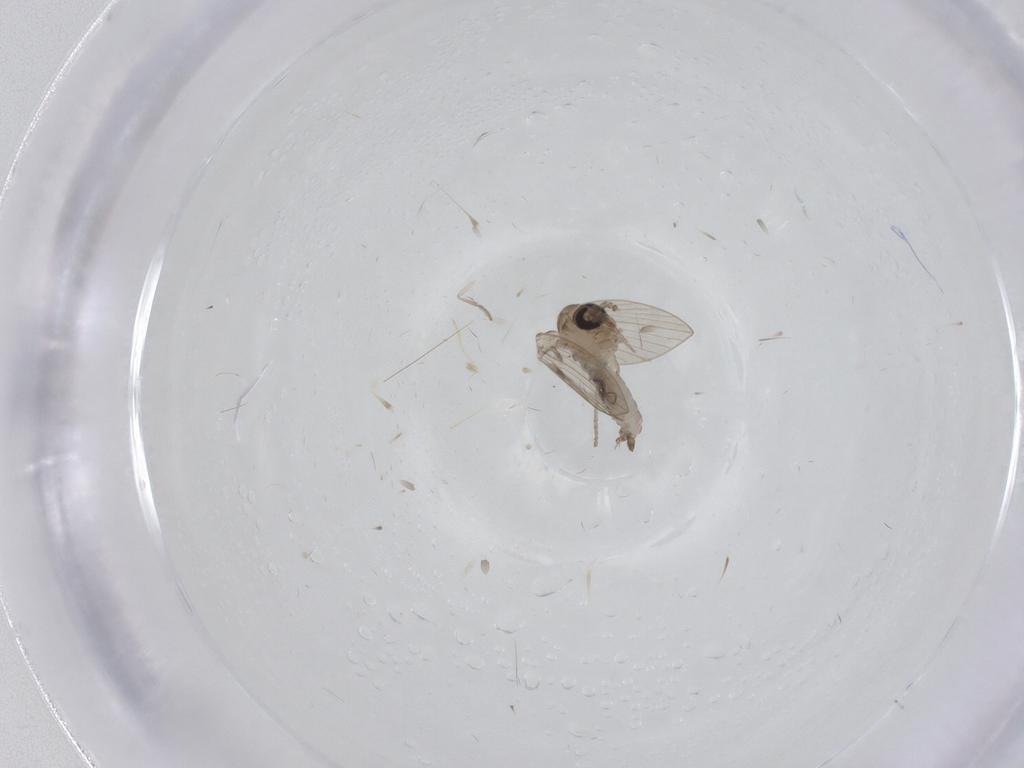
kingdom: Animalia
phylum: Arthropoda
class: Insecta
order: Diptera
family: Psychodidae
